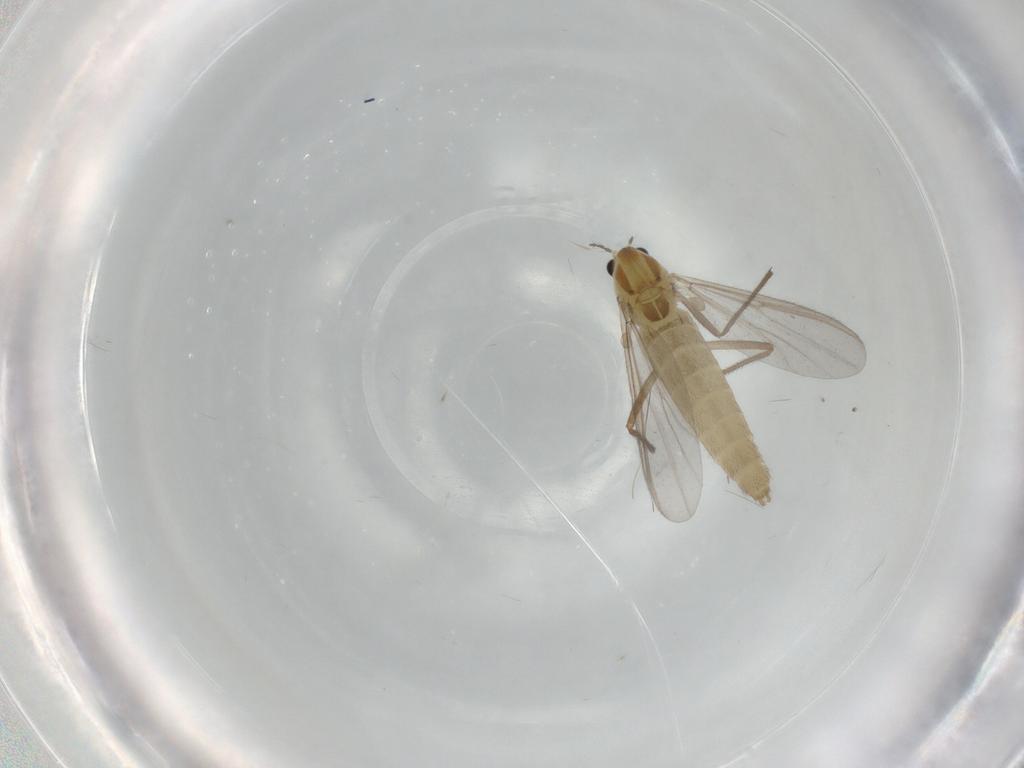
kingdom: Animalia
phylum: Arthropoda
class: Insecta
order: Diptera
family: Chironomidae
